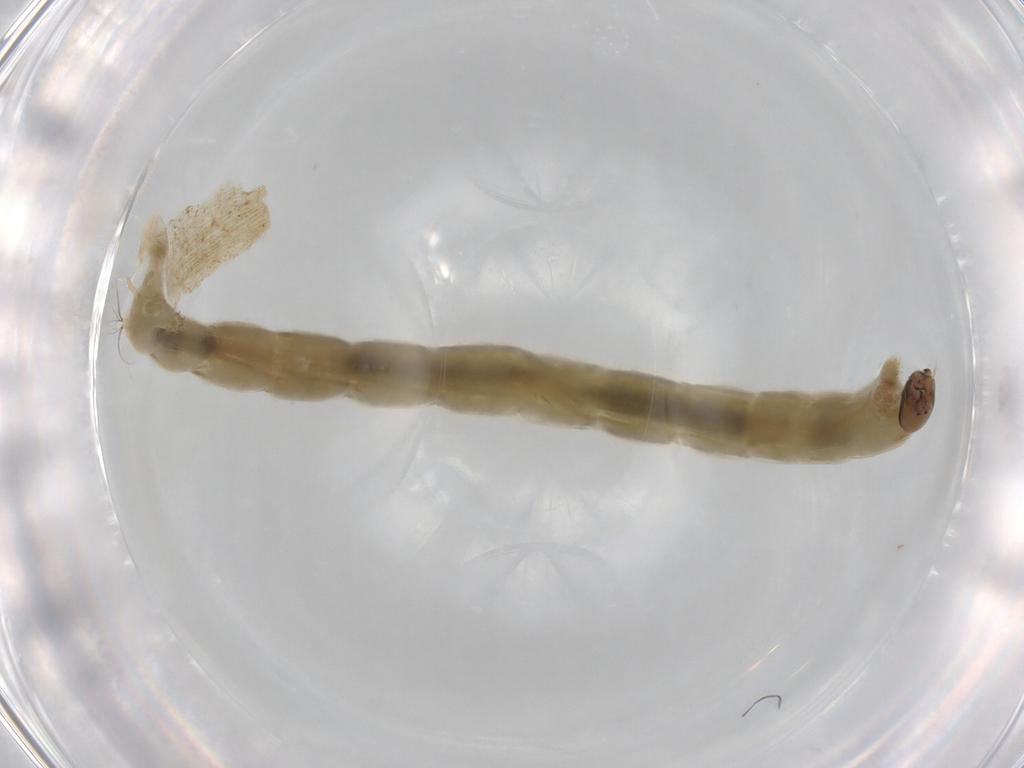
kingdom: Animalia
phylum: Arthropoda
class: Insecta
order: Diptera
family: Chironomidae
